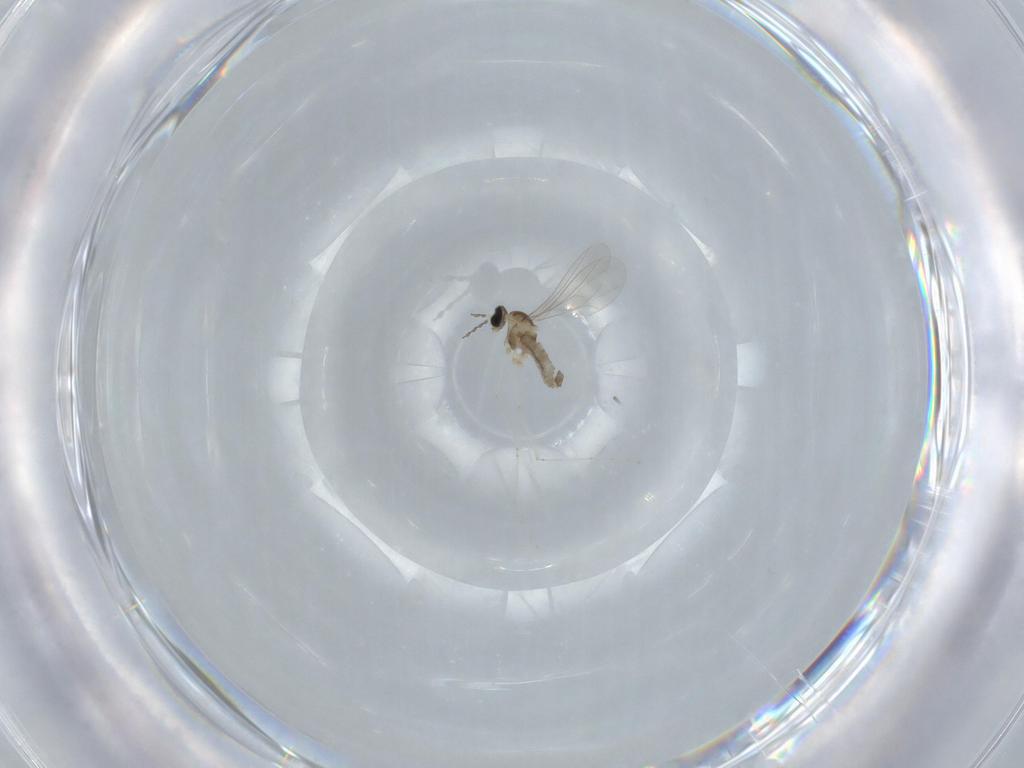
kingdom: Animalia
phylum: Arthropoda
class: Insecta
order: Diptera
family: Cecidomyiidae
